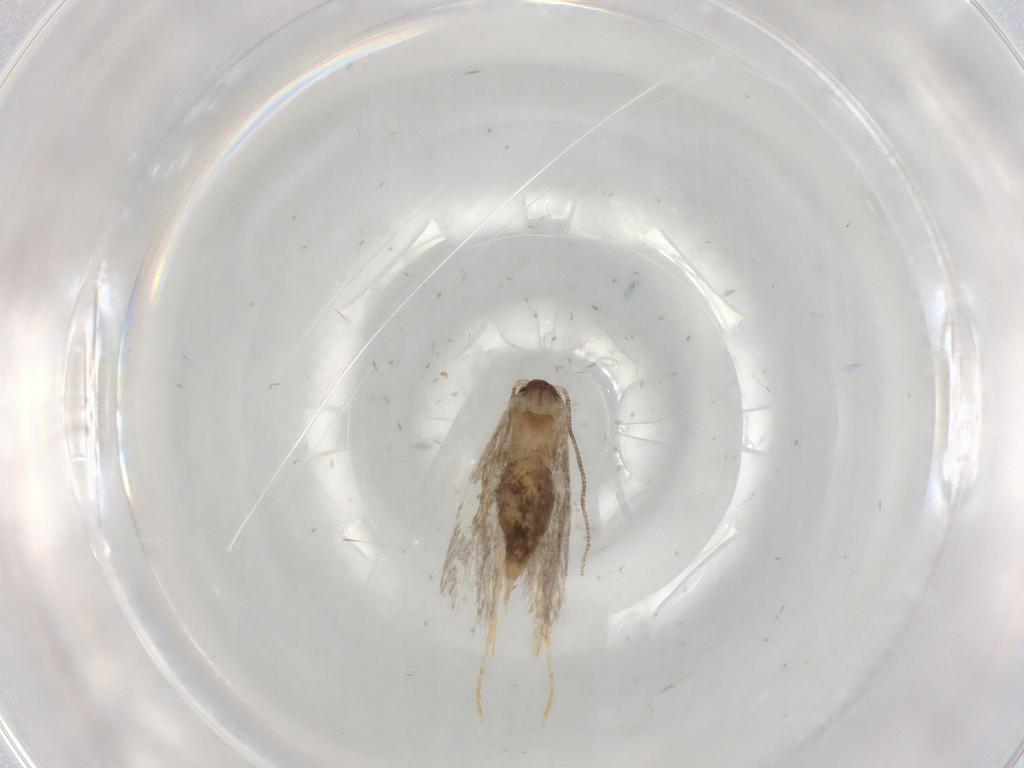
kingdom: Animalia
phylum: Arthropoda
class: Insecta
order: Lepidoptera
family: Tineidae
